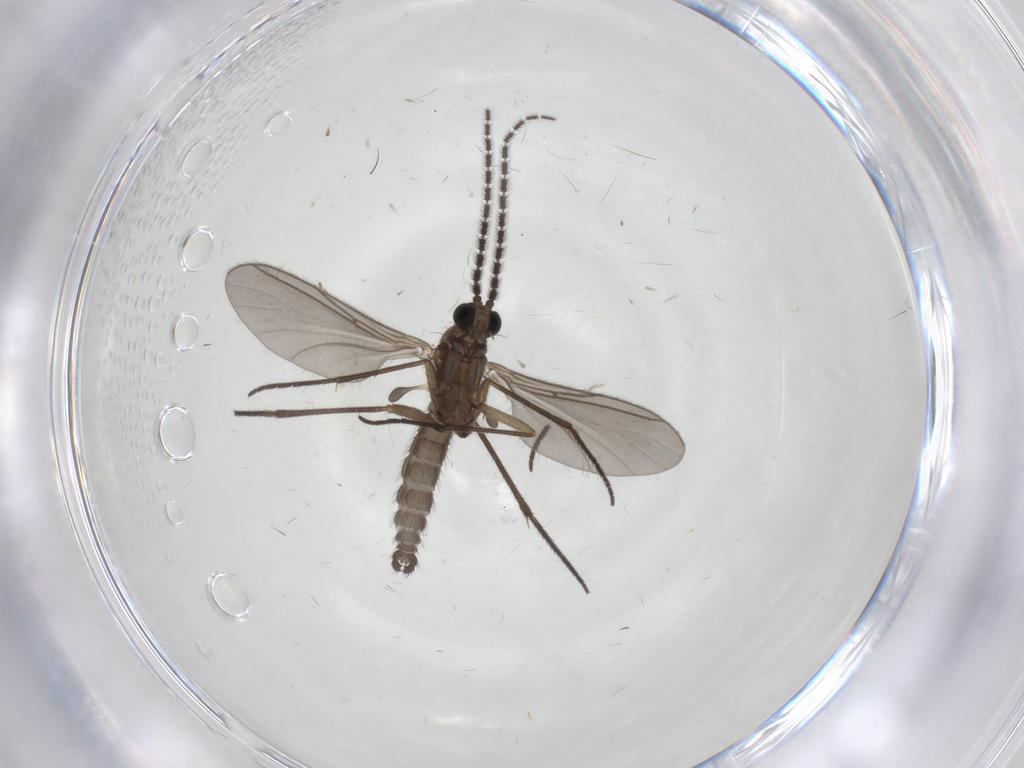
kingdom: Animalia
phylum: Arthropoda
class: Insecta
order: Diptera
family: Sciaridae
